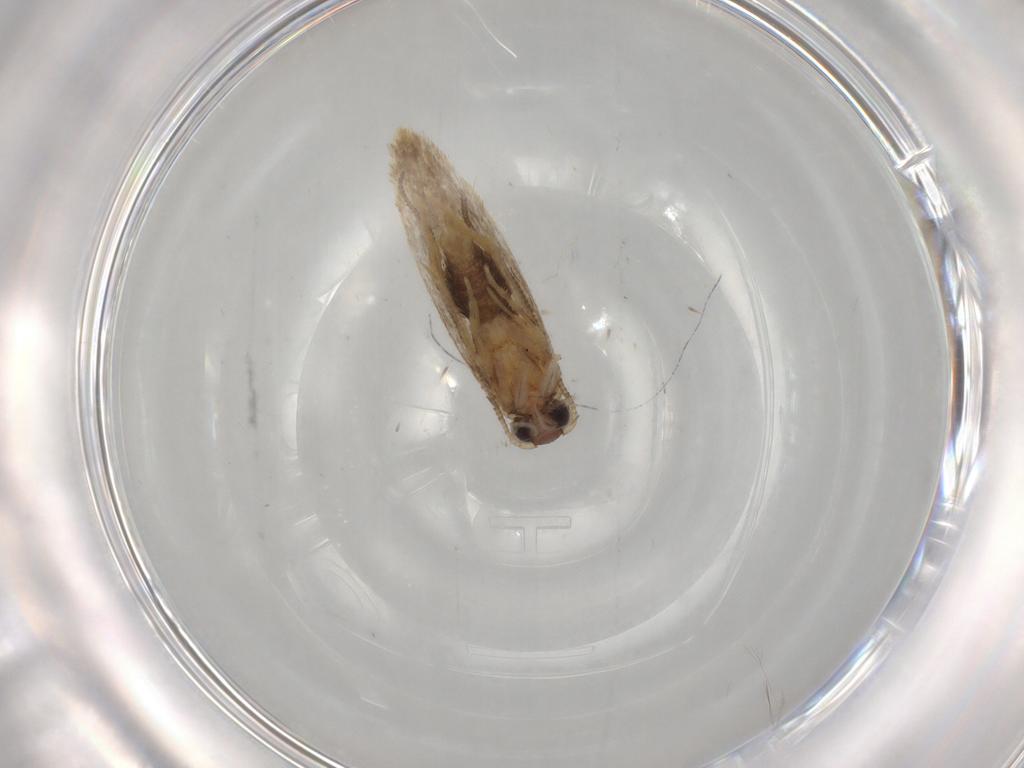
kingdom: Animalia
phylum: Arthropoda
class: Insecta
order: Lepidoptera
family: Tineidae
